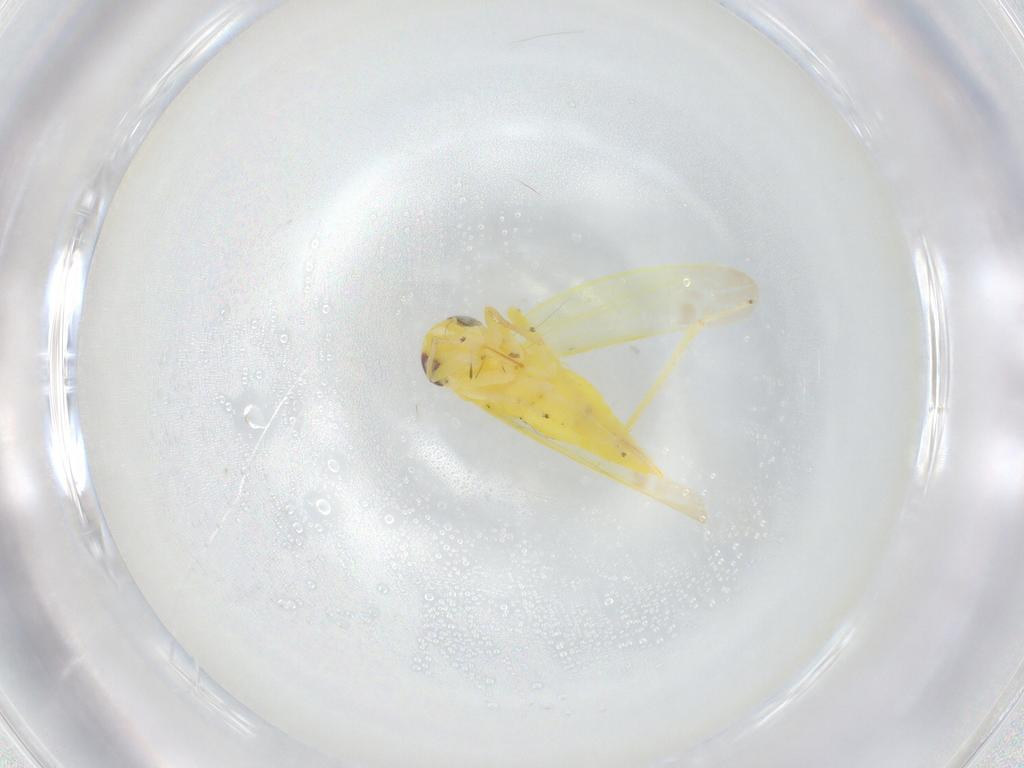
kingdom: Animalia
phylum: Arthropoda
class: Insecta
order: Hemiptera
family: Cicadellidae
